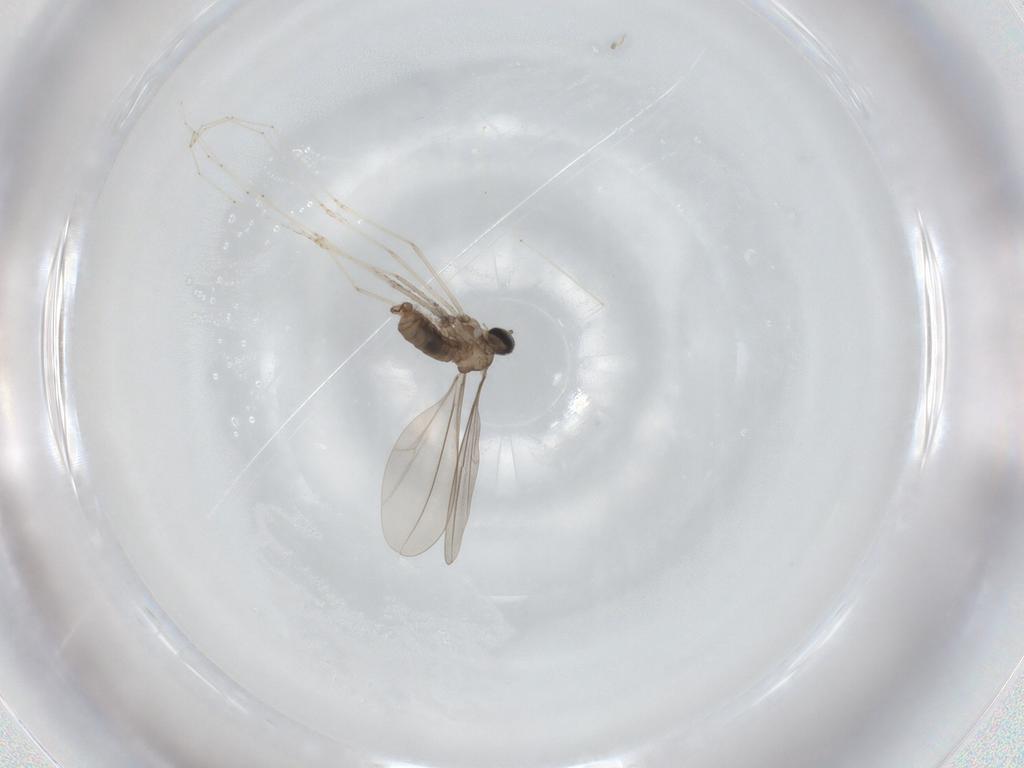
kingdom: Animalia
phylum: Arthropoda
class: Insecta
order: Diptera
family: Cecidomyiidae
